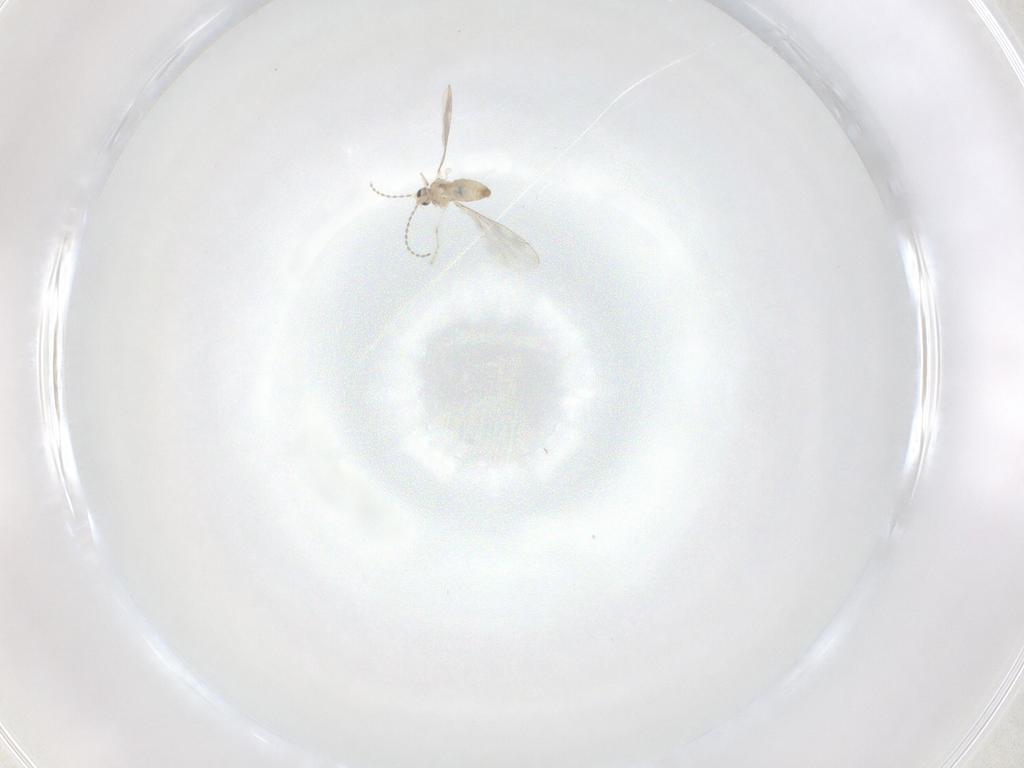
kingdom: Animalia
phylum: Arthropoda
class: Insecta
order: Diptera
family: Cecidomyiidae
